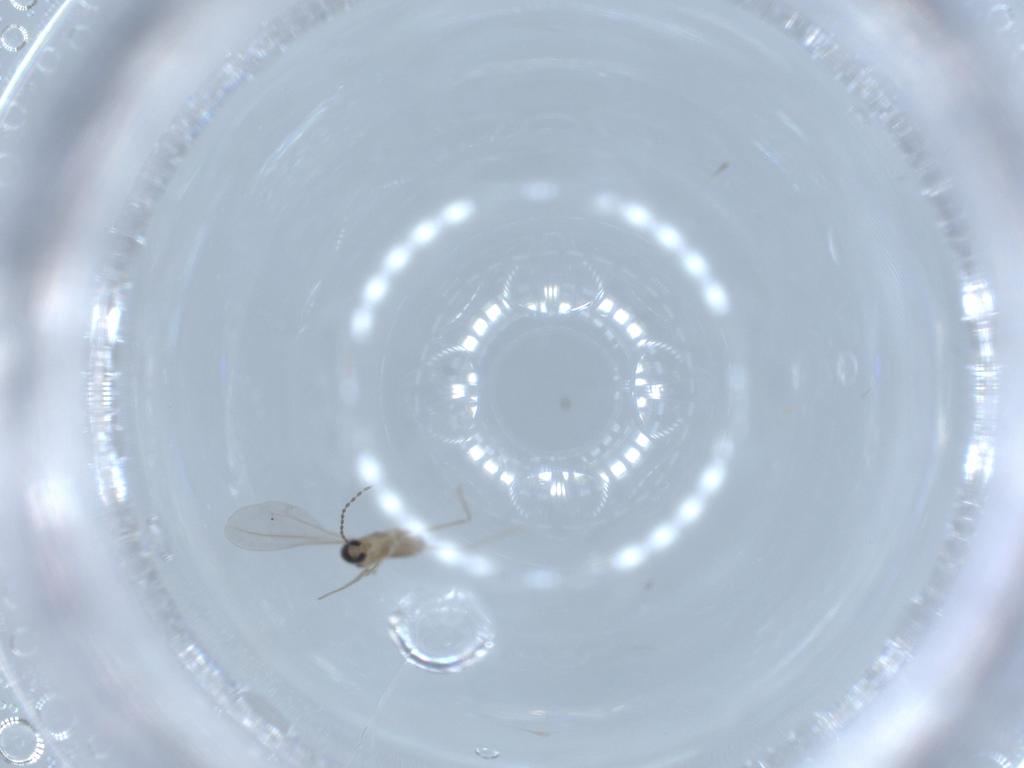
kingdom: Animalia
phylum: Arthropoda
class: Insecta
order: Diptera
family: Cecidomyiidae
